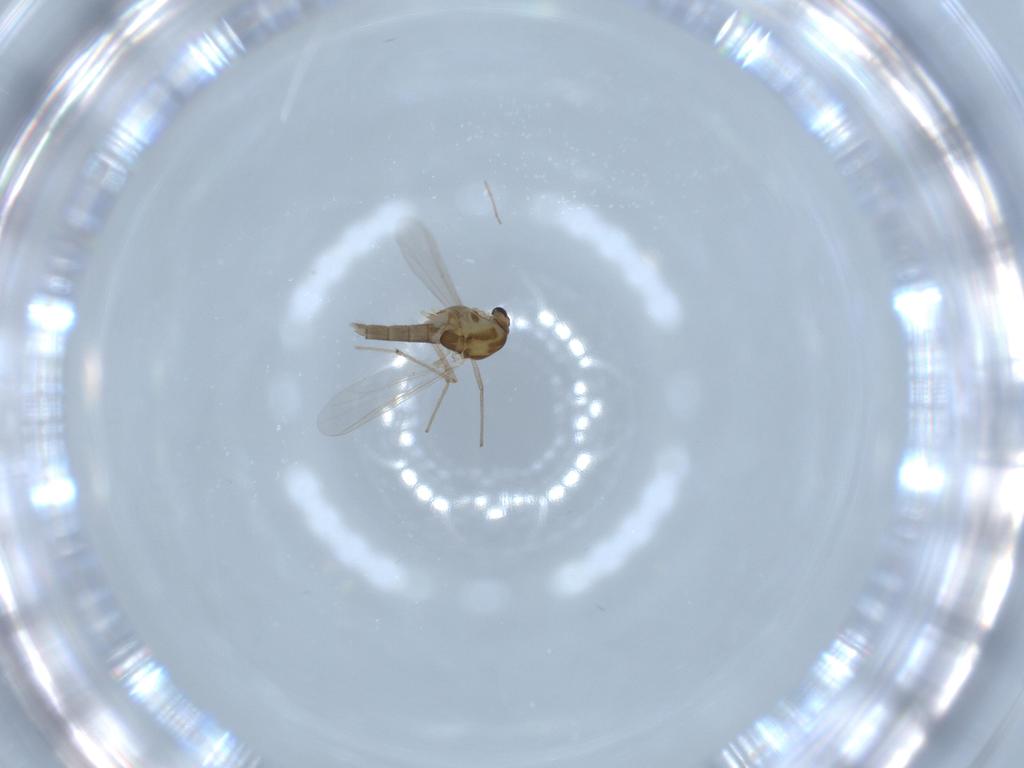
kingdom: Animalia
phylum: Arthropoda
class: Insecta
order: Diptera
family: Chironomidae
